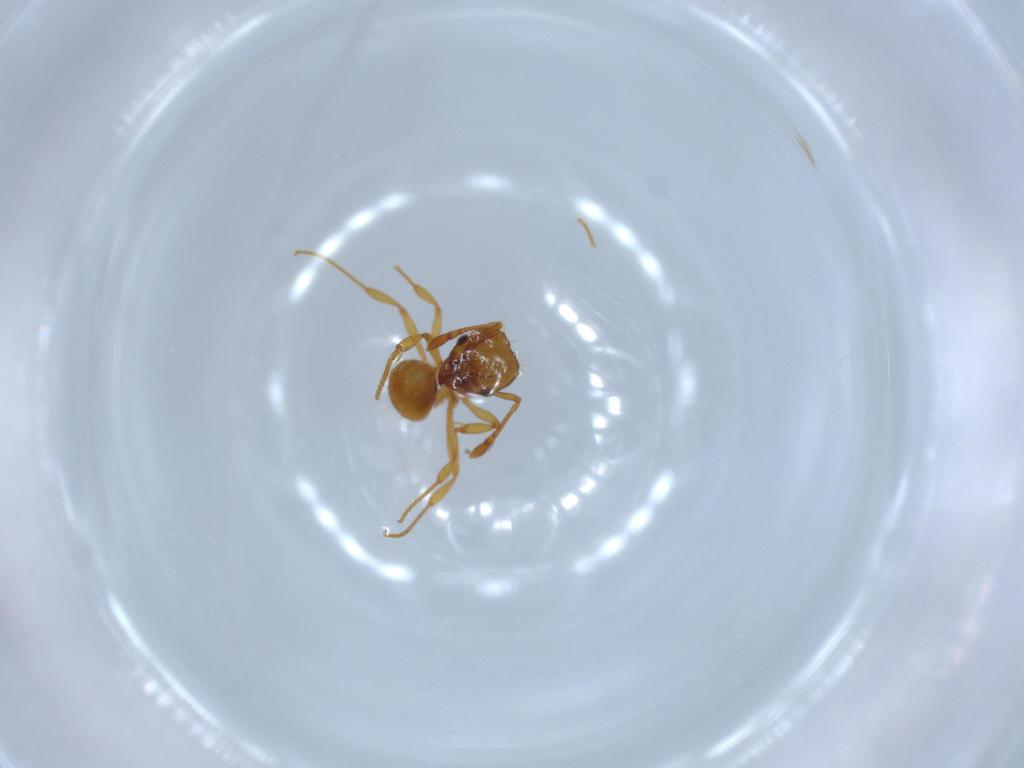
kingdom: Animalia
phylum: Arthropoda
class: Insecta
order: Hymenoptera
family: Formicidae
